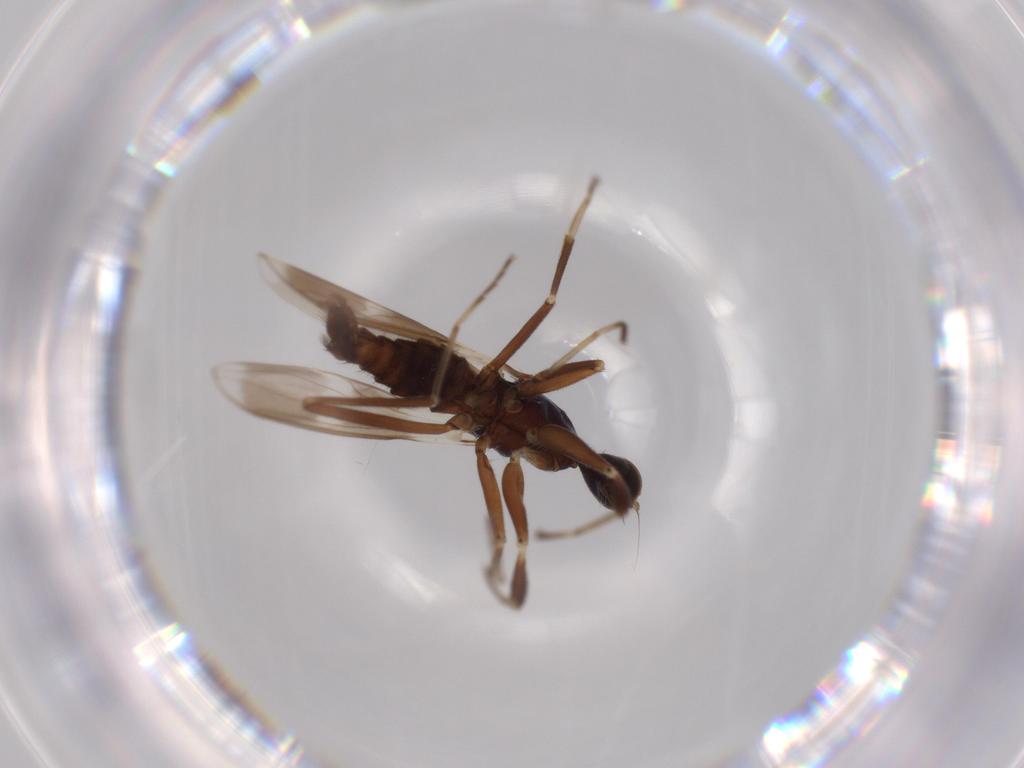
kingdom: Animalia
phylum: Arthropoda
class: Insecta
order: Diptera
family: Hybotidae
